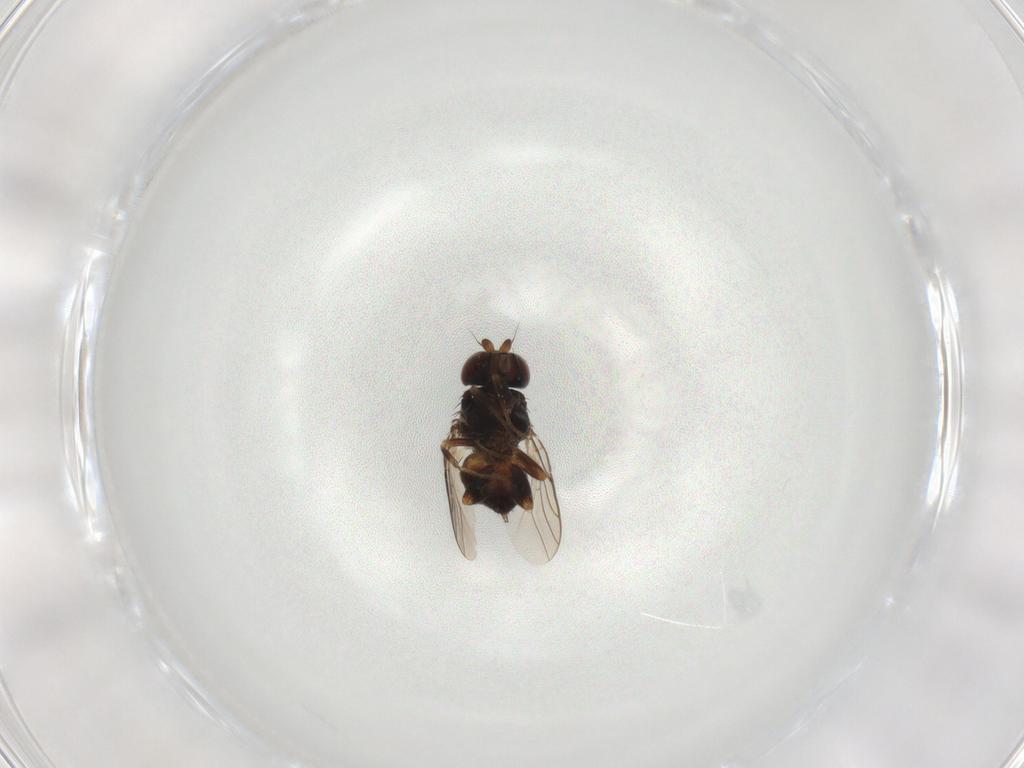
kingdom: Animalia
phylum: Arthropoda
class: Insecta
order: Diptera
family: Chloropidae
